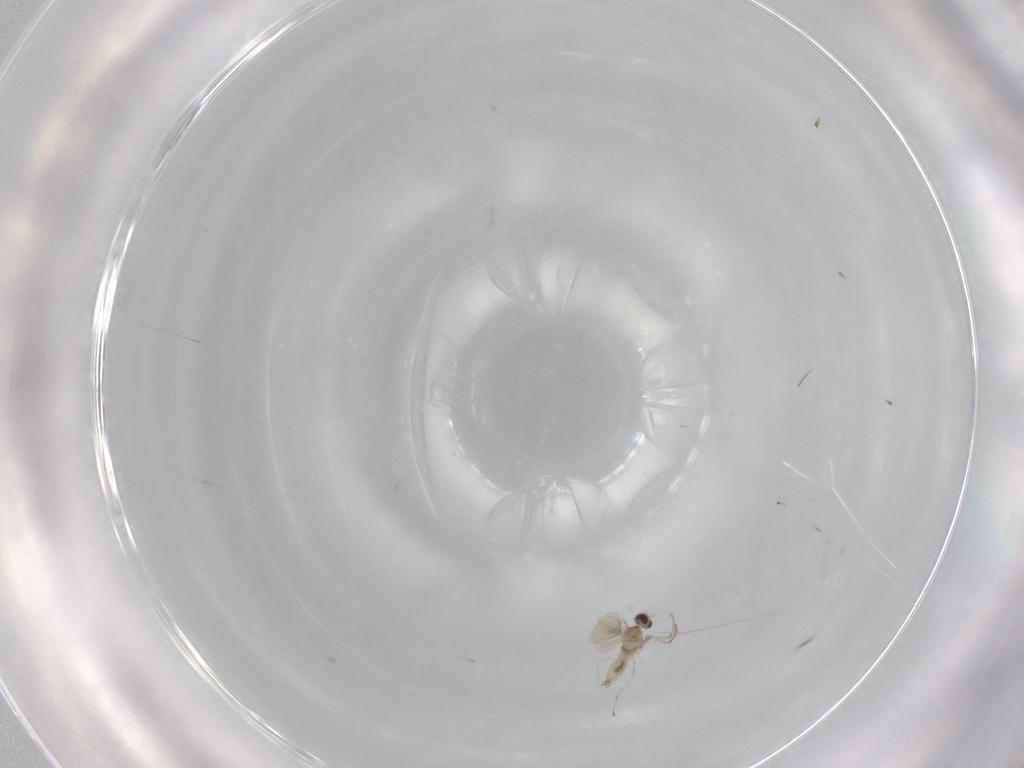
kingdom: Animalia
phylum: Arthropoda
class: Insecta
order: Diptera
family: Cecidomyiidae
